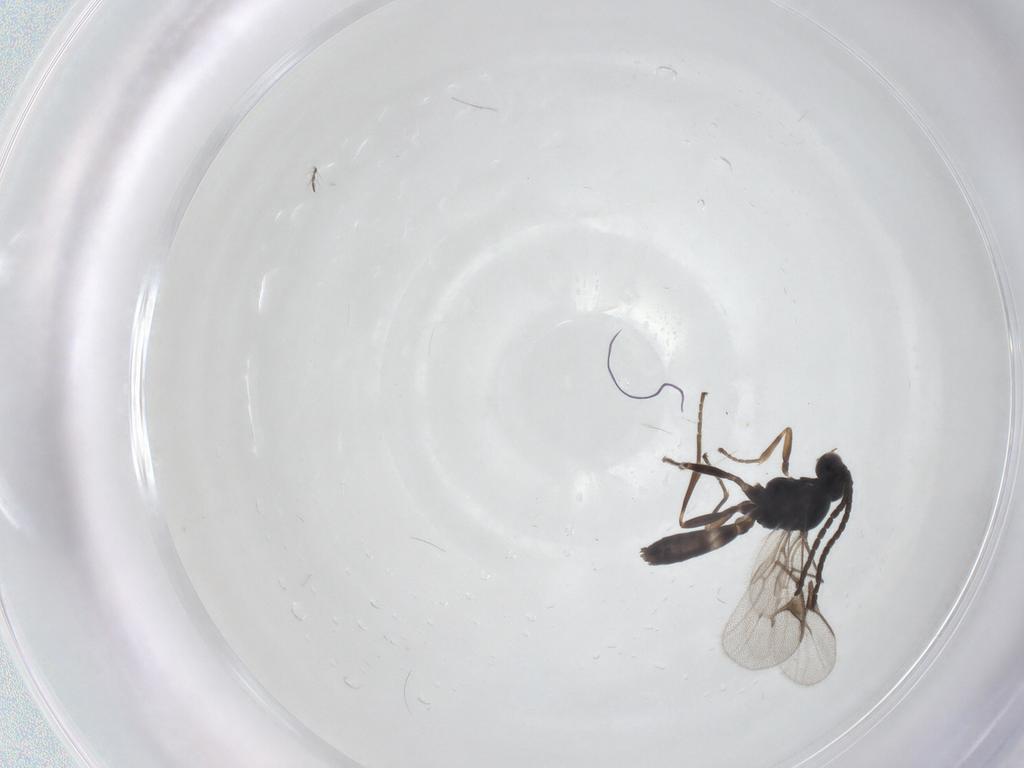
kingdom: Animalia
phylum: Arthropoda
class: Insecta
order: Hymenoptera
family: Braconidae
